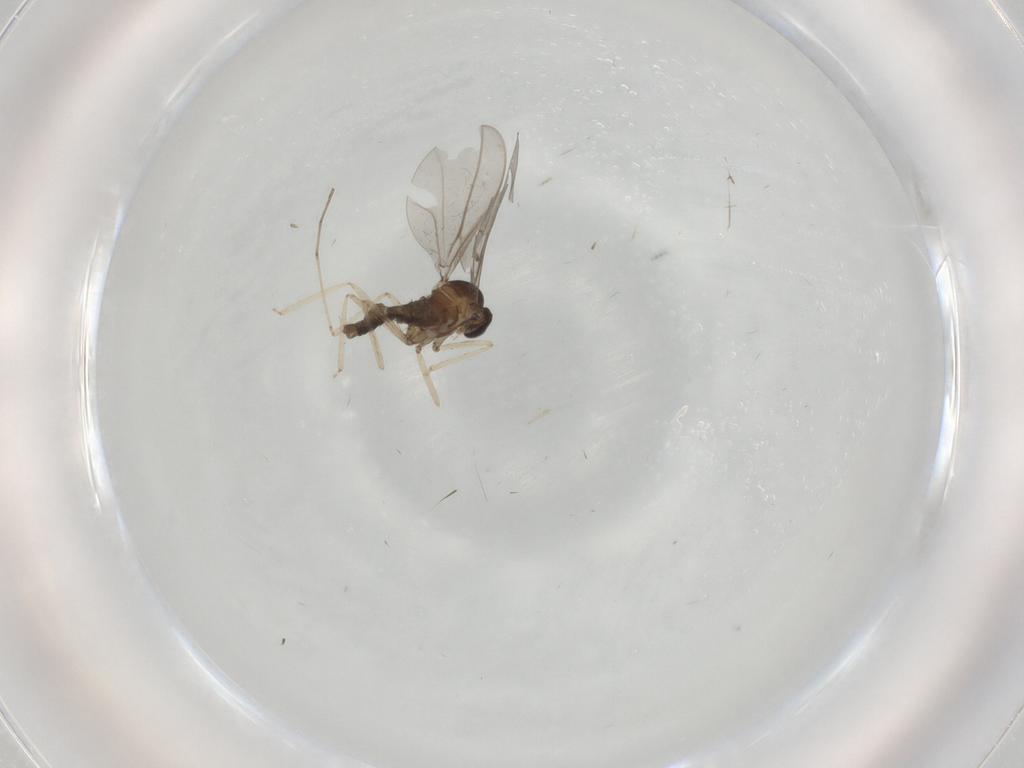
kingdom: Animalia
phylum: Arthropoda
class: Insecta
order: Diptera
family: Cecidomyiidae
